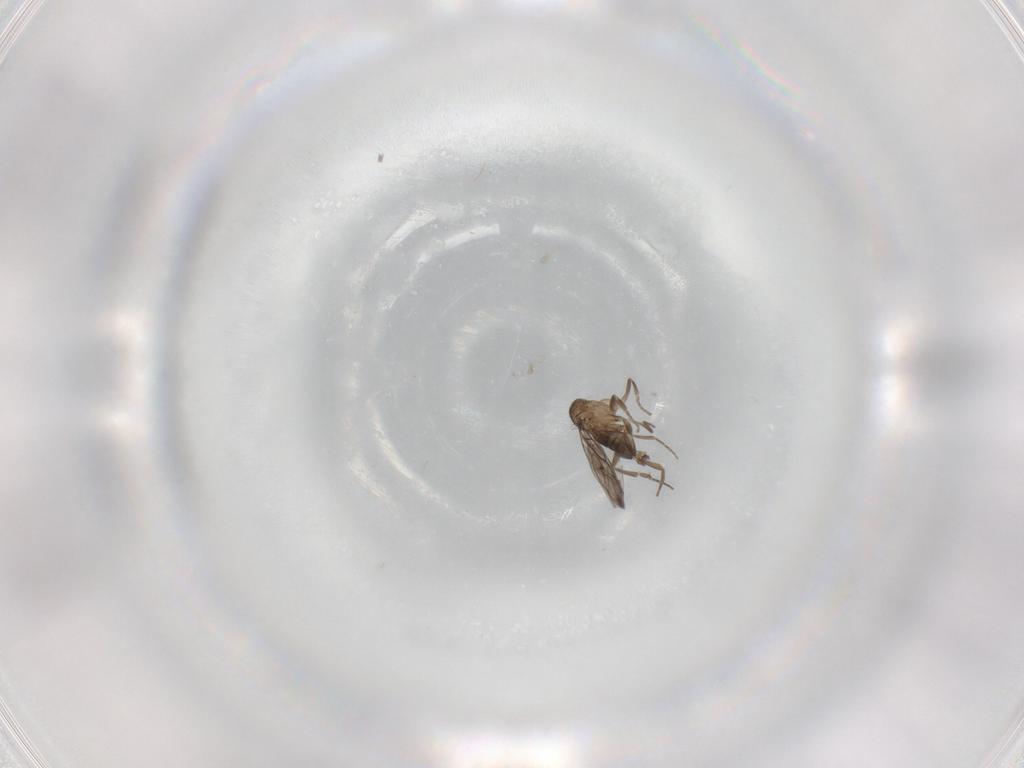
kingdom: Animalia
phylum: Arthropoda
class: Insecta
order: Diptera
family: Phoridae
